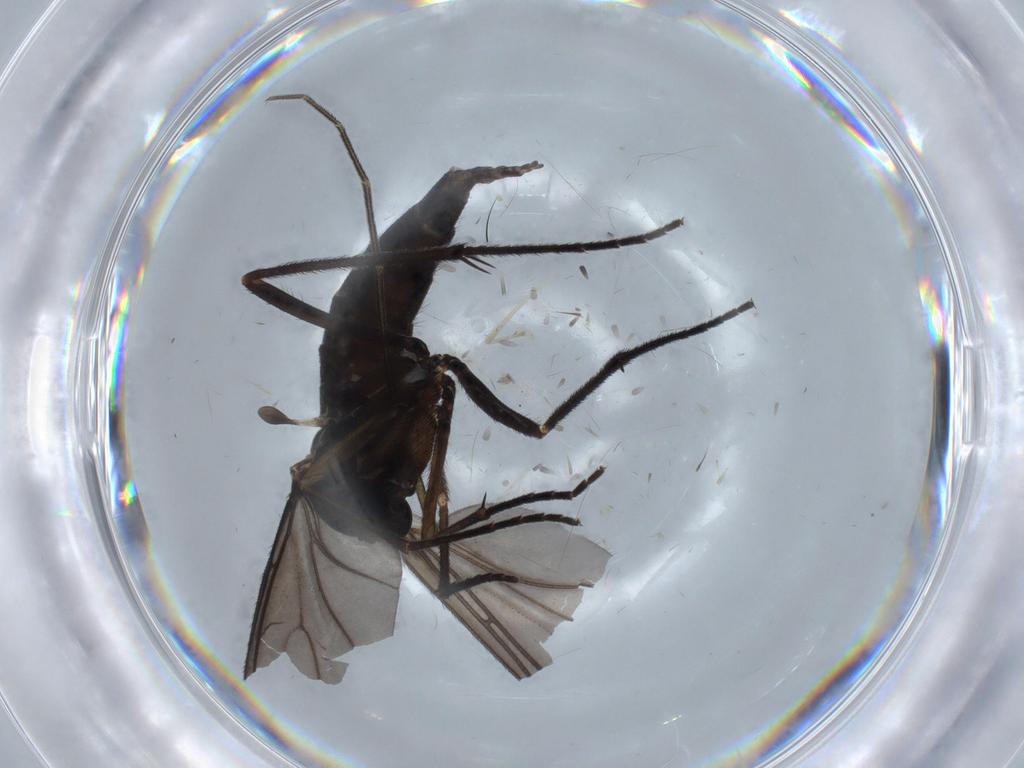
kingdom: Animalia
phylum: Arthropoda
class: Insecta
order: Diptera
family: Sciaridae
